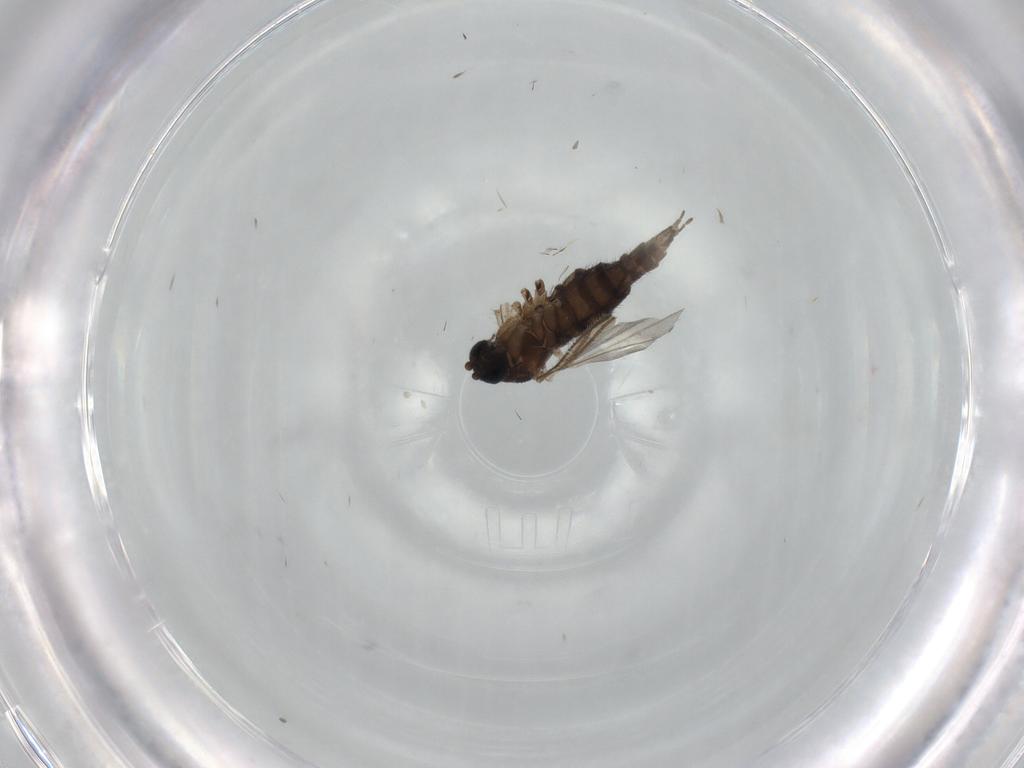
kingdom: Animalia
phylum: Arthropoda
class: Insecta
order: Diptera
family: Sciaridae
